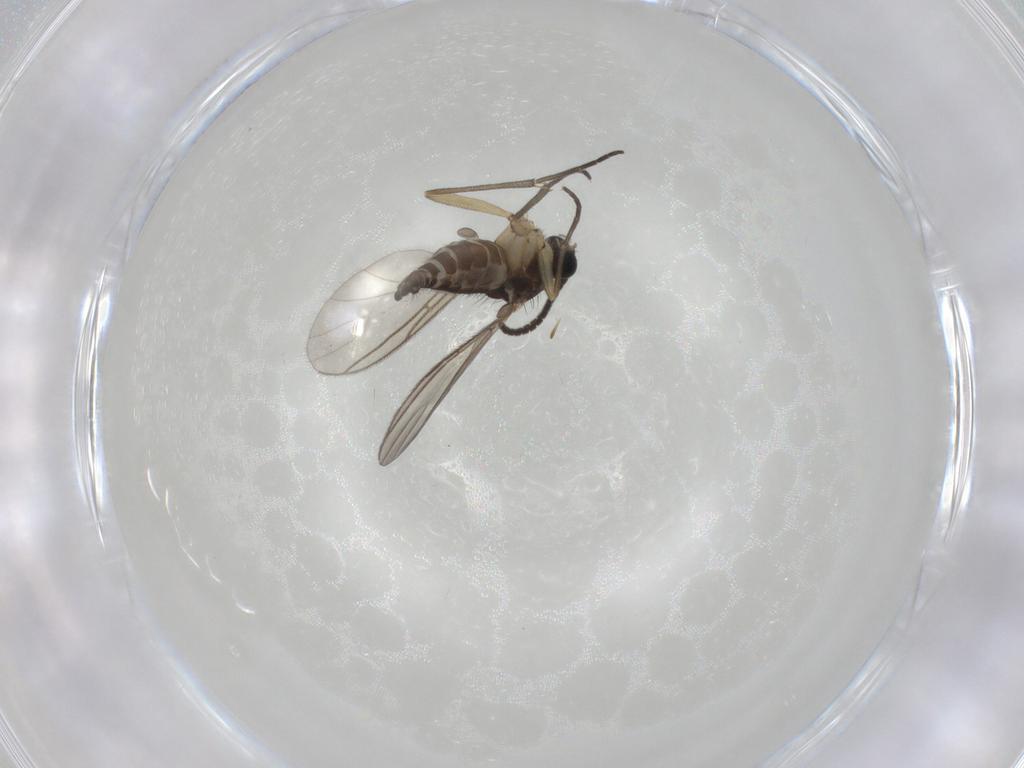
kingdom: Animalia
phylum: Arthropoda
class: Insecta
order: Diptera
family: Sciaridae
